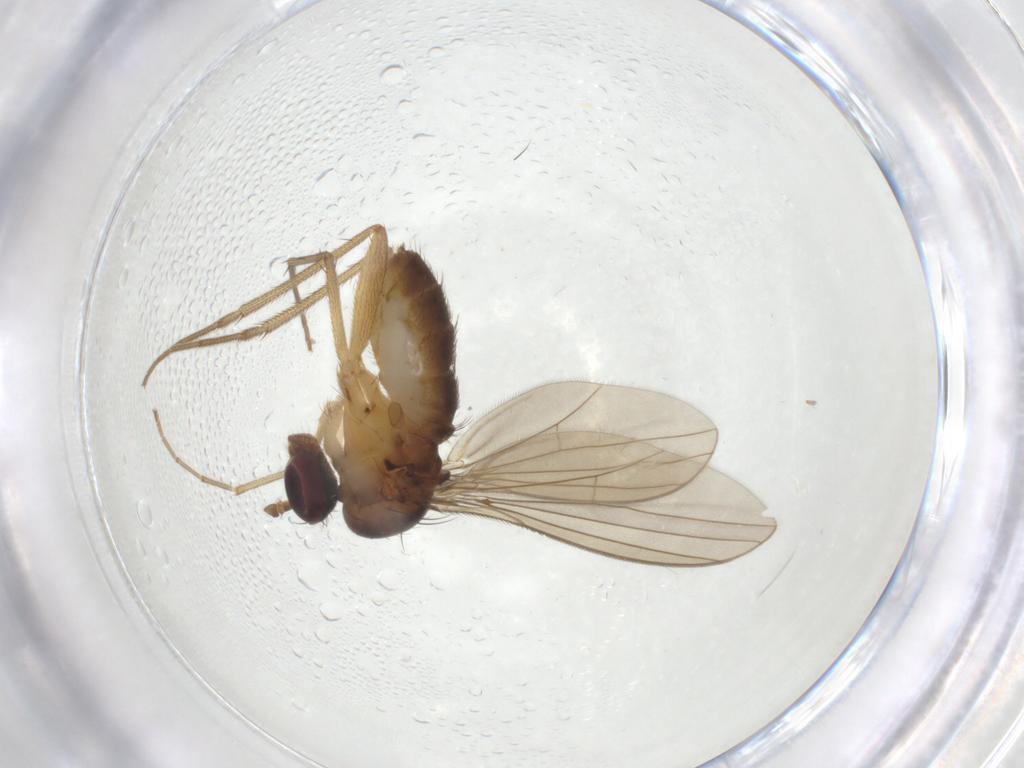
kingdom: Animalia
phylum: Arthropoda
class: Insecta
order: Diptera
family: Dolichopodidae
